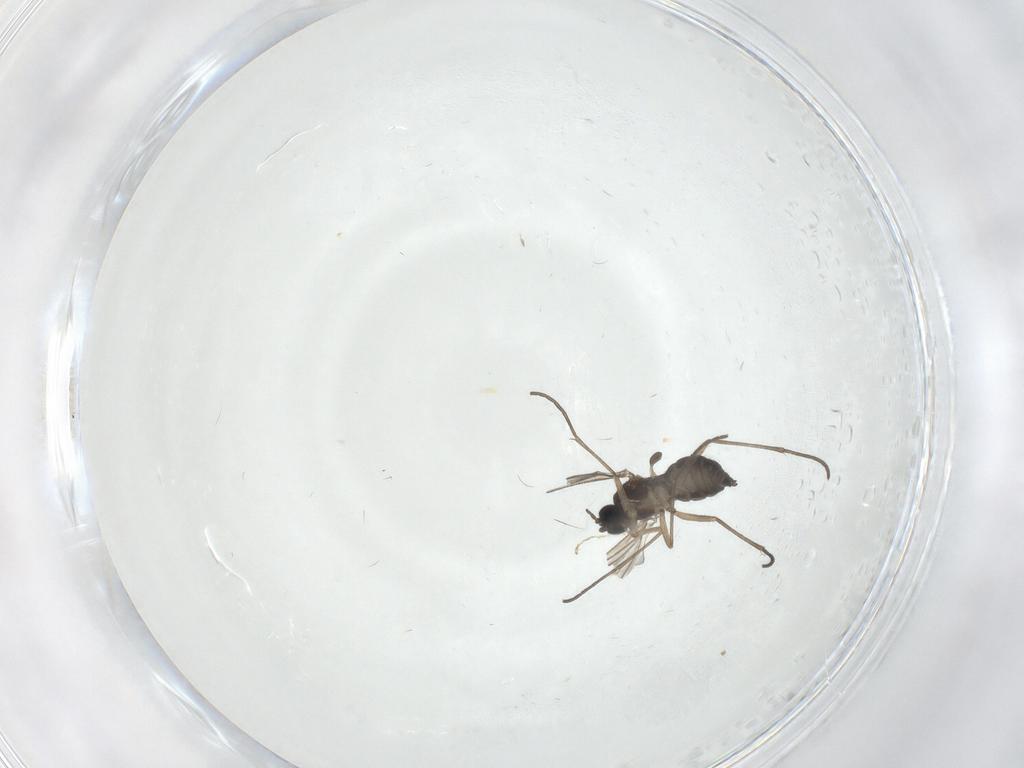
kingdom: Animalia
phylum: Arthropoda
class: Insecta
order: Diptera
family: Sciaridae
